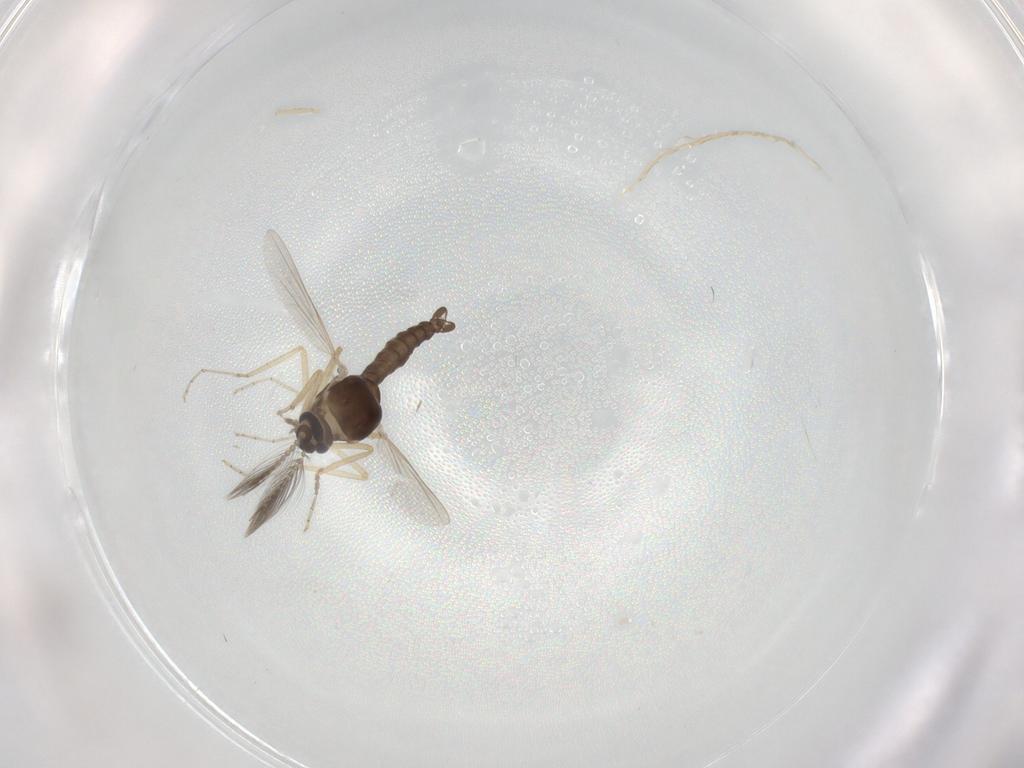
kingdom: Animalia
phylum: Arthropoda
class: Insecta
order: Diptera
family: Ceratopogonidae
